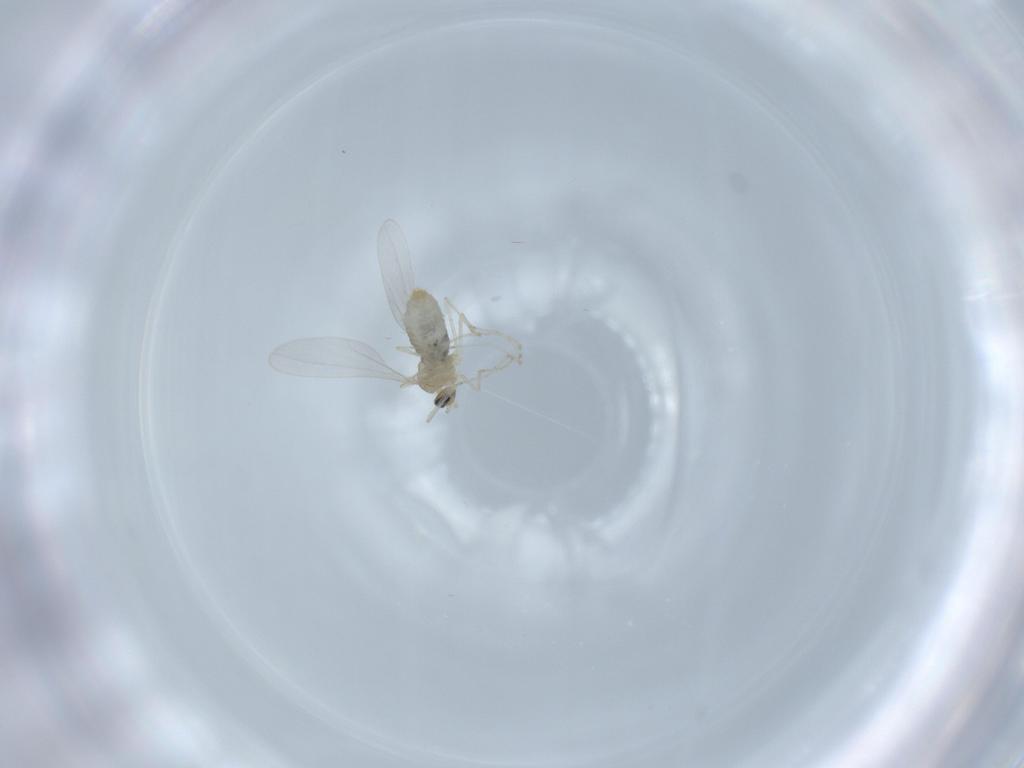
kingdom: Animalia
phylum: Arthropoda
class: Insecta
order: Diptera
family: Cecidomyiidae
